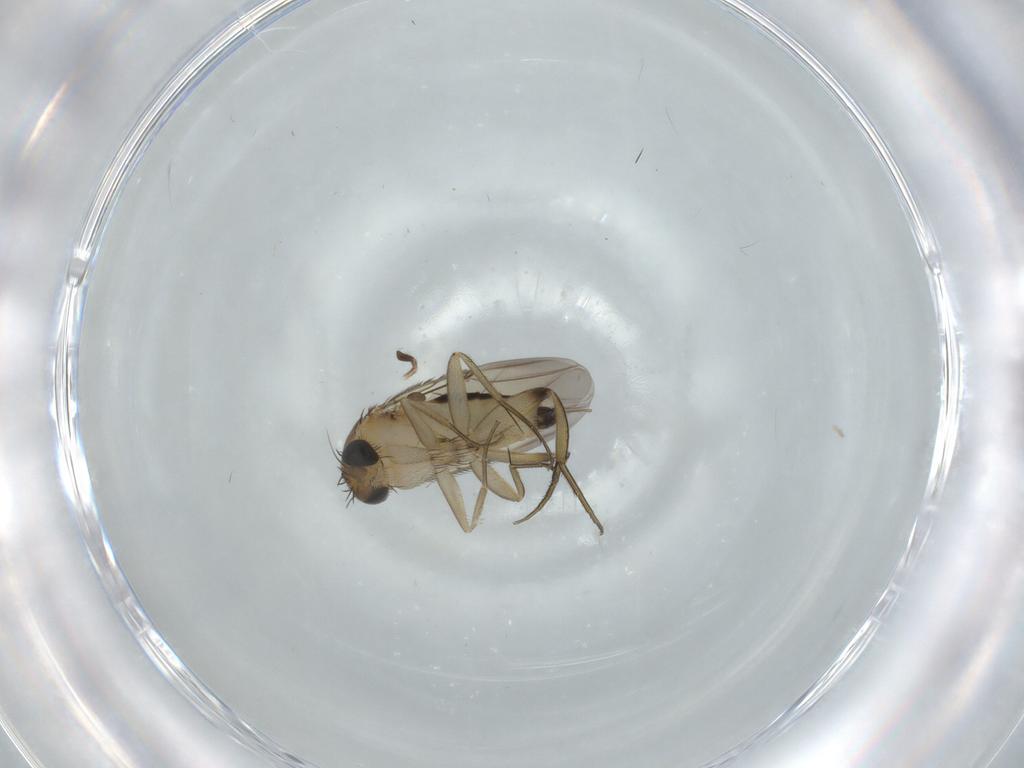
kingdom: Animalia
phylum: Arthropoda
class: Insecta
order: Diptera
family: Phoridae
